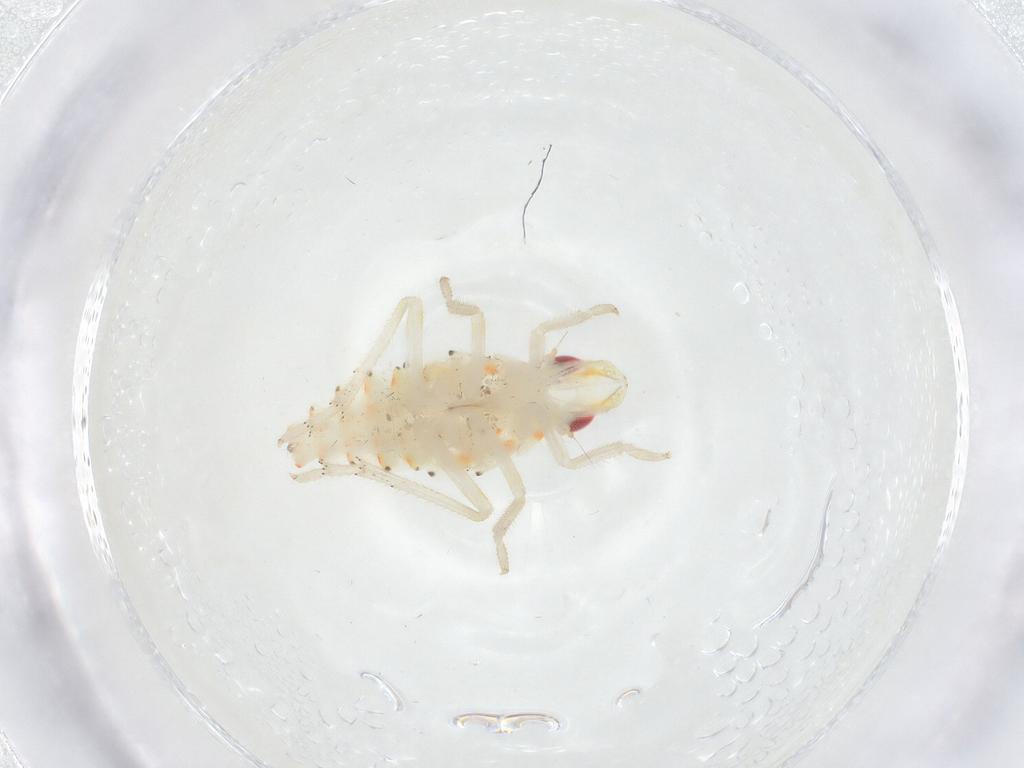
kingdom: Animalia
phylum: Arthropoda
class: Insecta
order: Hemiptera
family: Tropiduchidae
